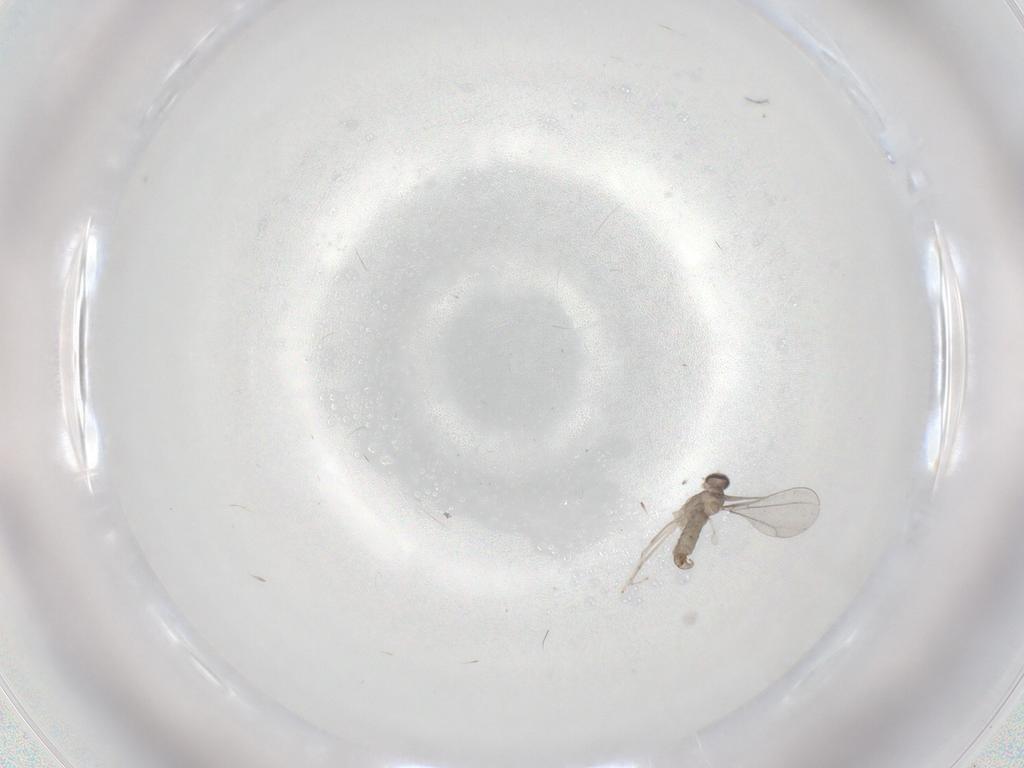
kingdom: Animalia
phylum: Arthropoda
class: Insecta
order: Diptera
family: Cecidomyiidae
